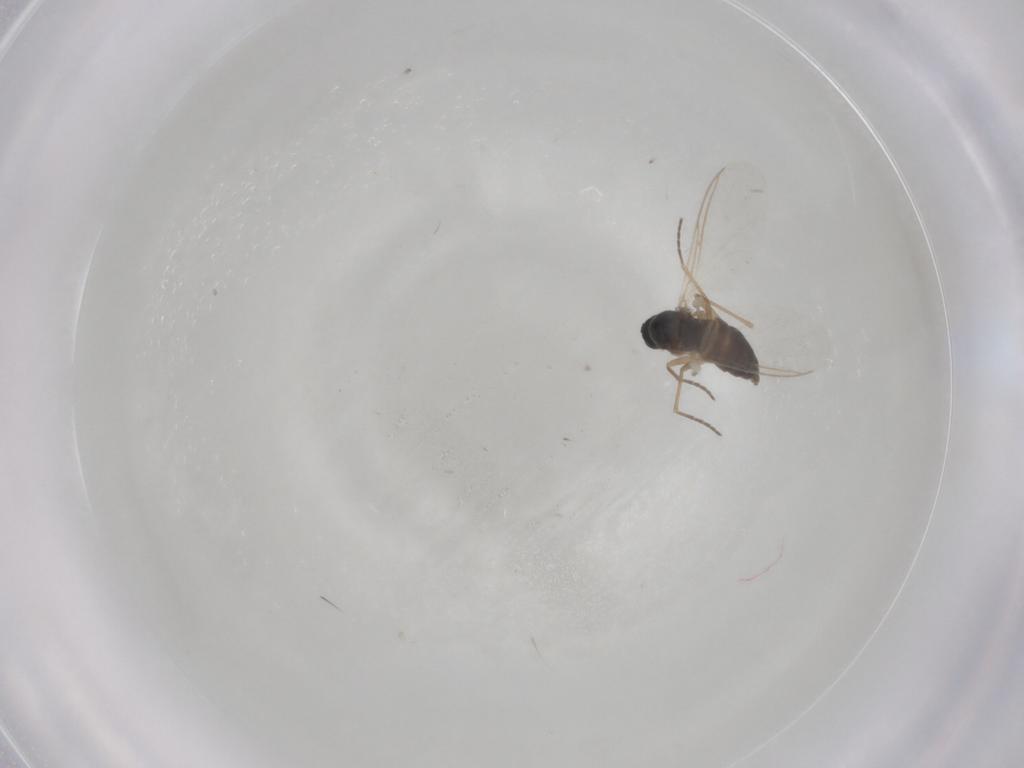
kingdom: Animalia
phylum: Arthropoda
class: Insecta
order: Diptera
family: Sciaridae
